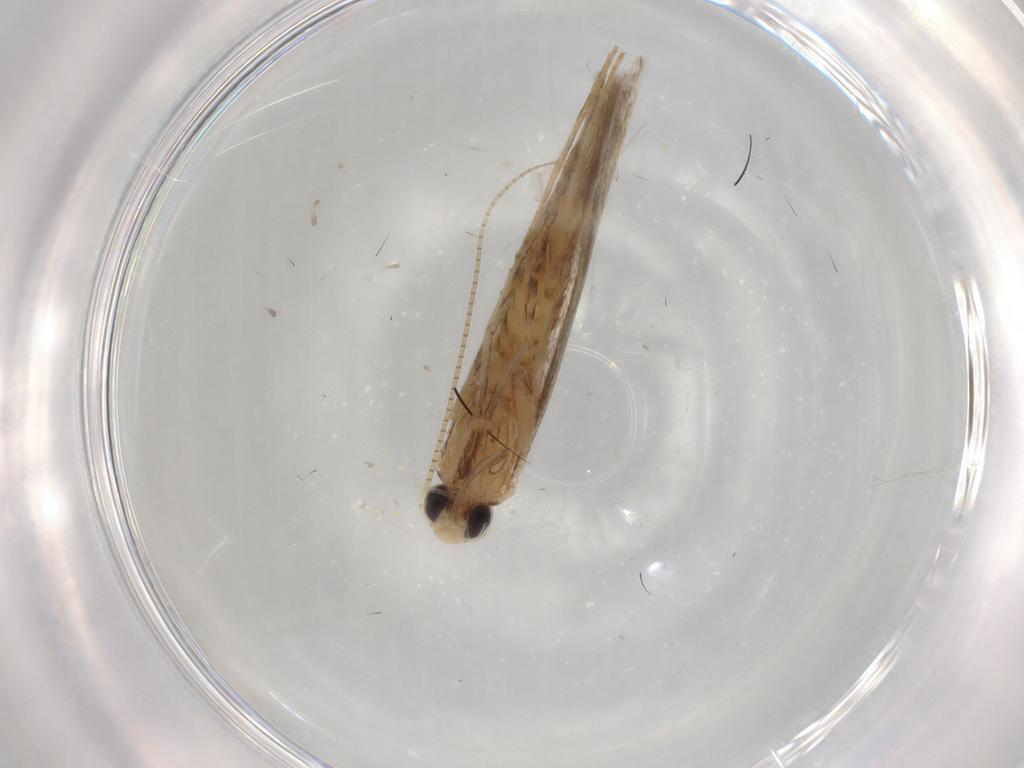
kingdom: Animalia
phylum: Arthropoda
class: Insecta
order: Lepidoptera
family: Gracillariidae
